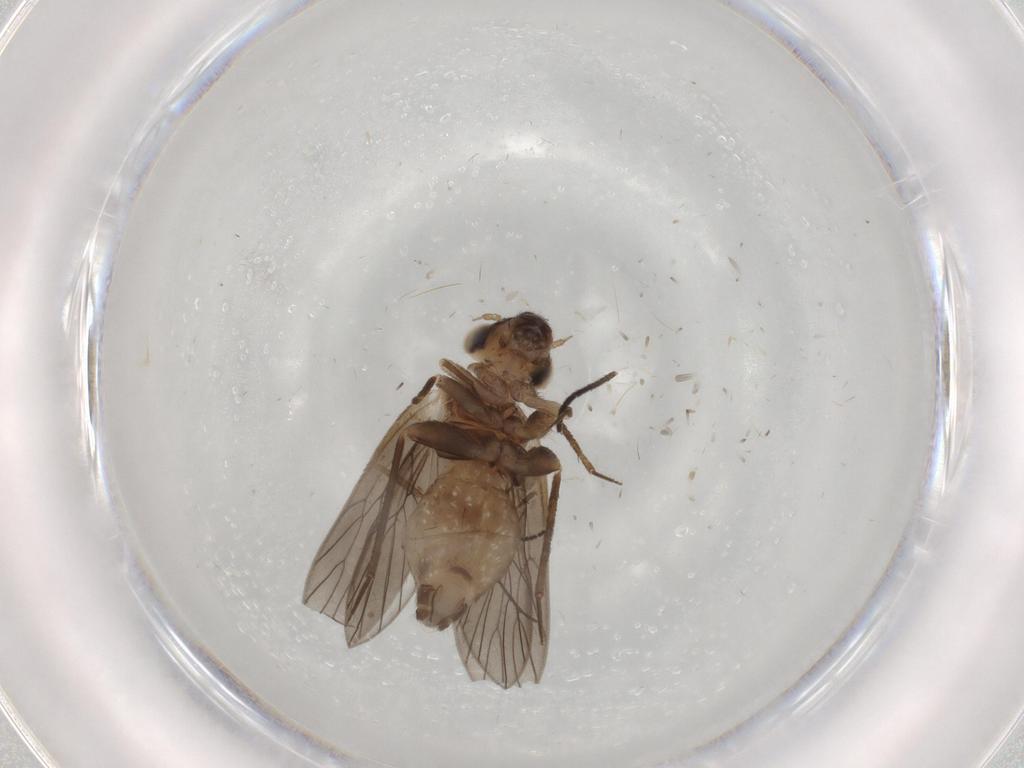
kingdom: Animalia
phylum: Arthropoda
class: Insecta
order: Psocodea
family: Lepidopsocidae
